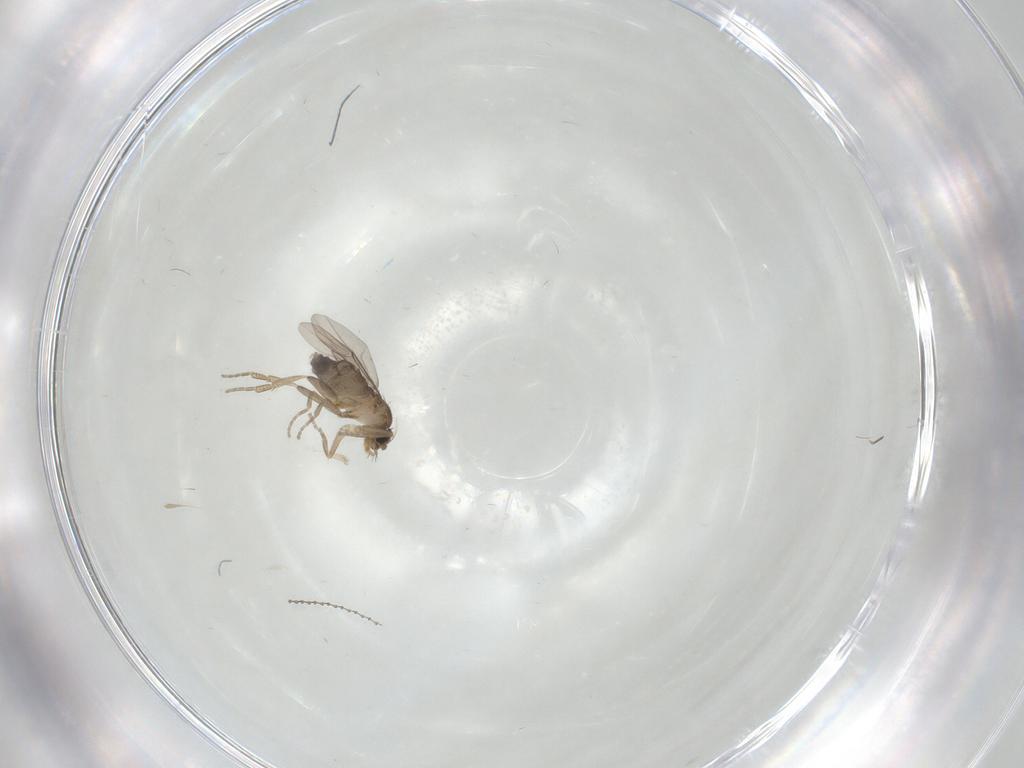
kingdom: Animalia
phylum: Arthropoda
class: Insecta
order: Diptera
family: Phoridae
